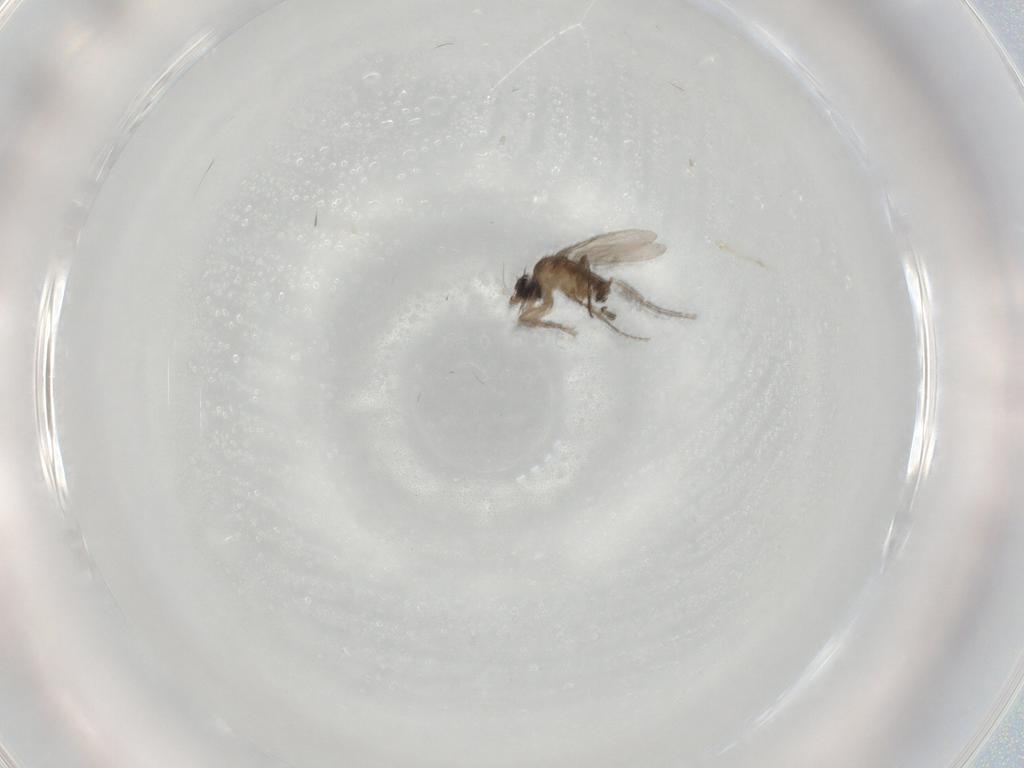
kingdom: Animalia
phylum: Arthropoda
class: Insecta
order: Diptera
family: Phoridae
